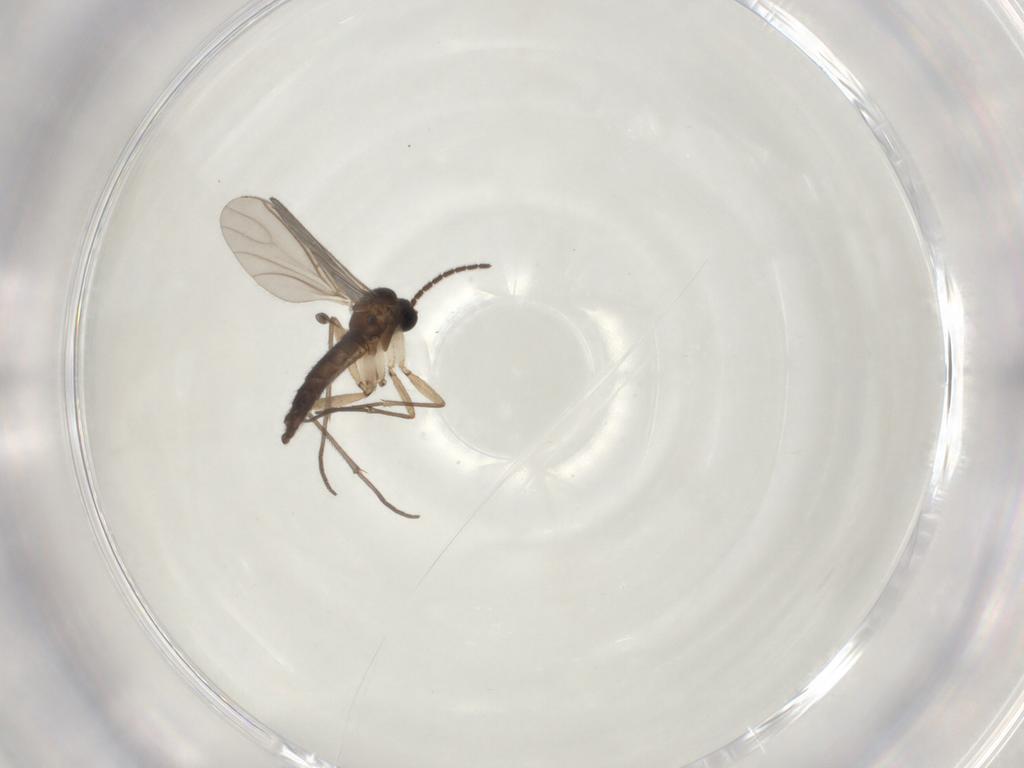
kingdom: Animalia
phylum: Arthropoda
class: Insecta
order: Diptera
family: Sciaridae
